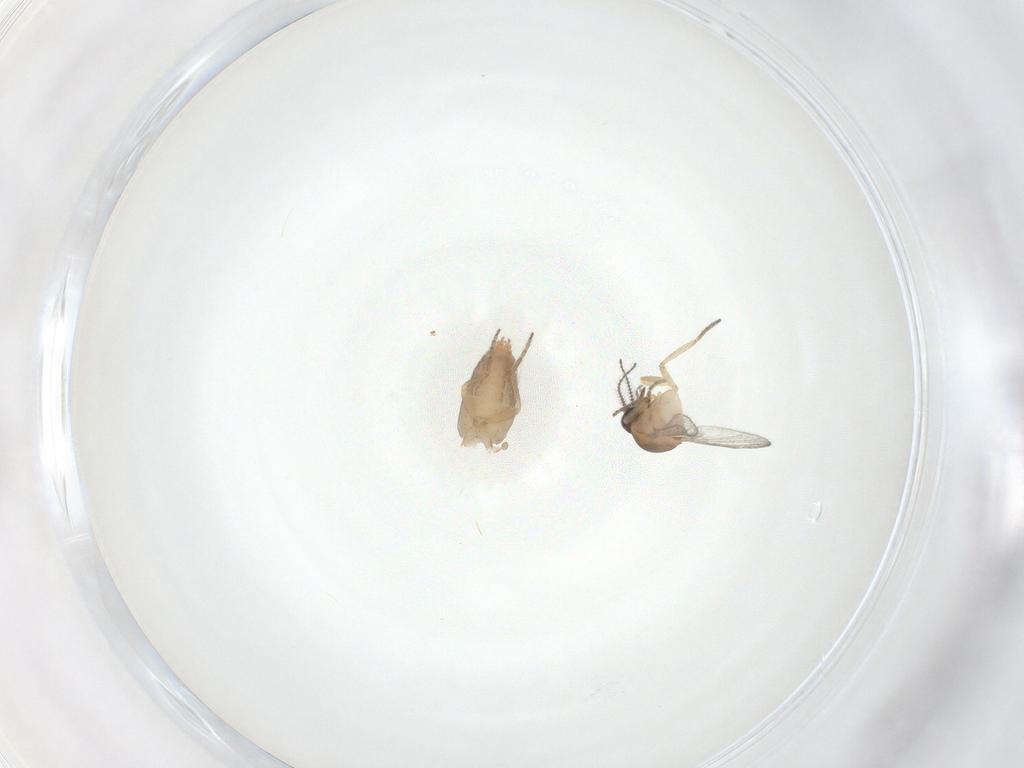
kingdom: Animalia
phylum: Arthropoda
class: Insecta
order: Diptera
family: Ceratopogonidae
